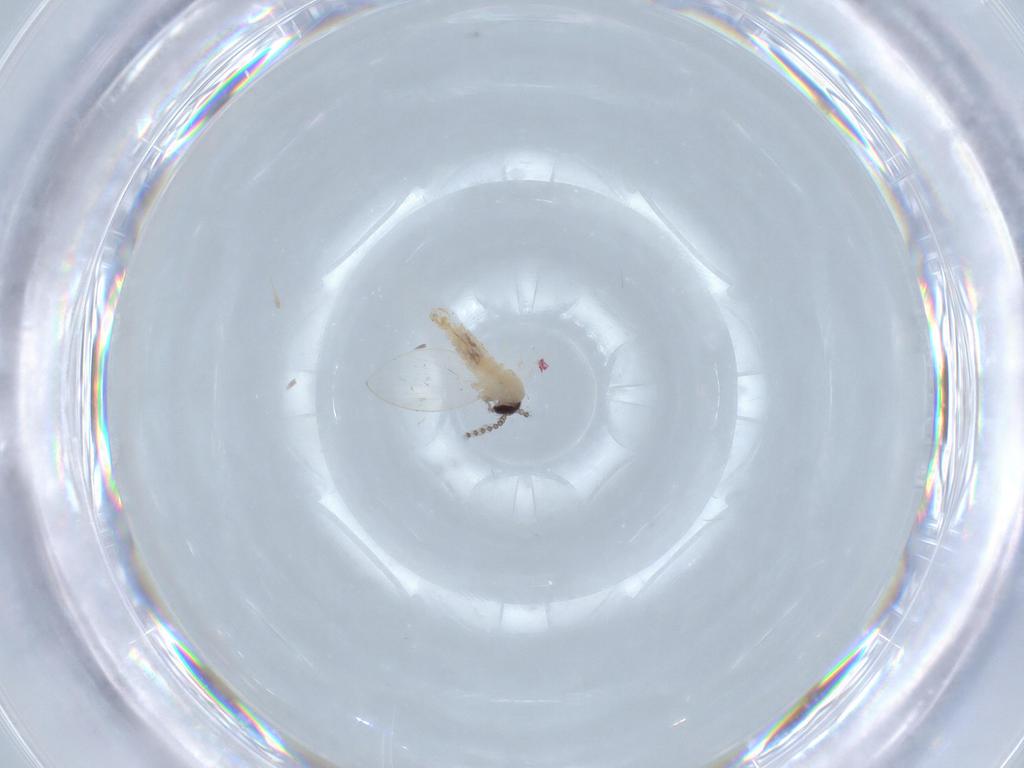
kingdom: Animalia
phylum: Arthropoda
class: Insecta
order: Diptera
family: Psychodidae
